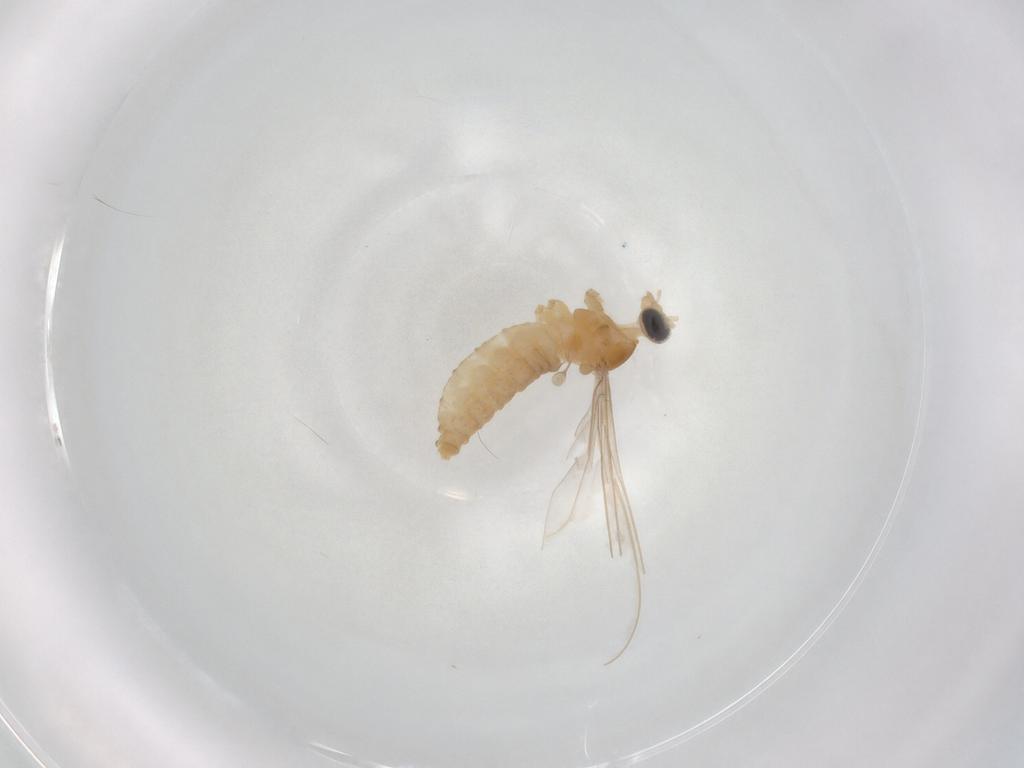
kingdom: Animalia
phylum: Arthropoda
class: Insecta
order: Diptera
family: Cecidomyiidae
